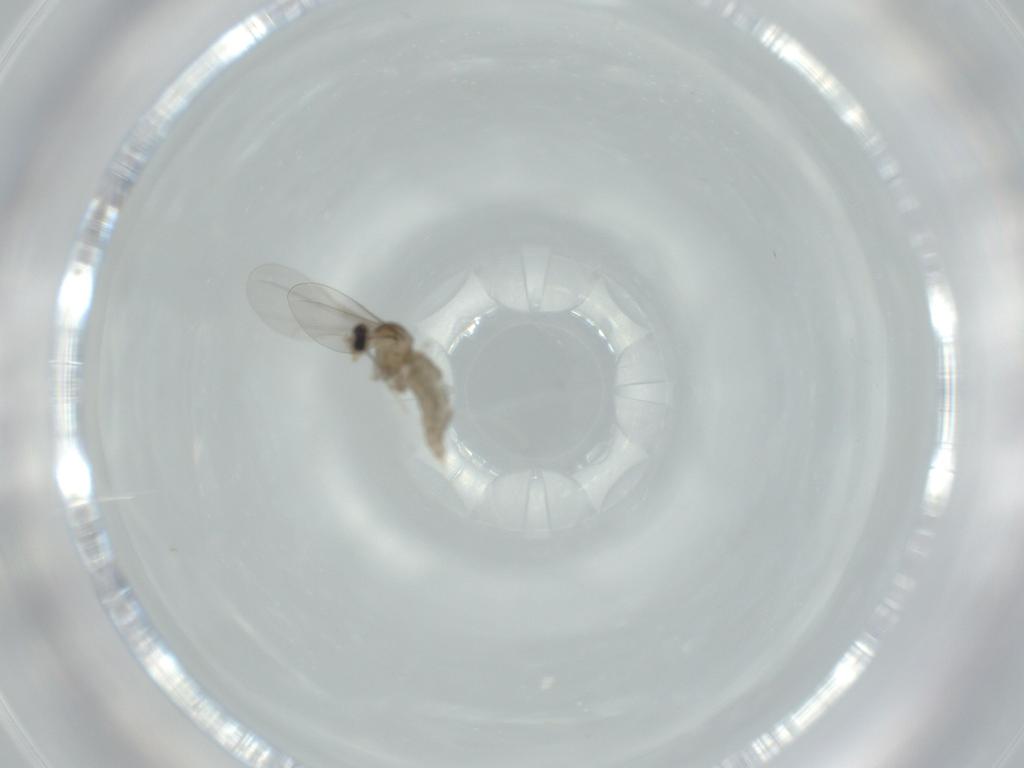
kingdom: Animalia
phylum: Arthropoda
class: Insecta
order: Diptera
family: Cecidomyiidae
